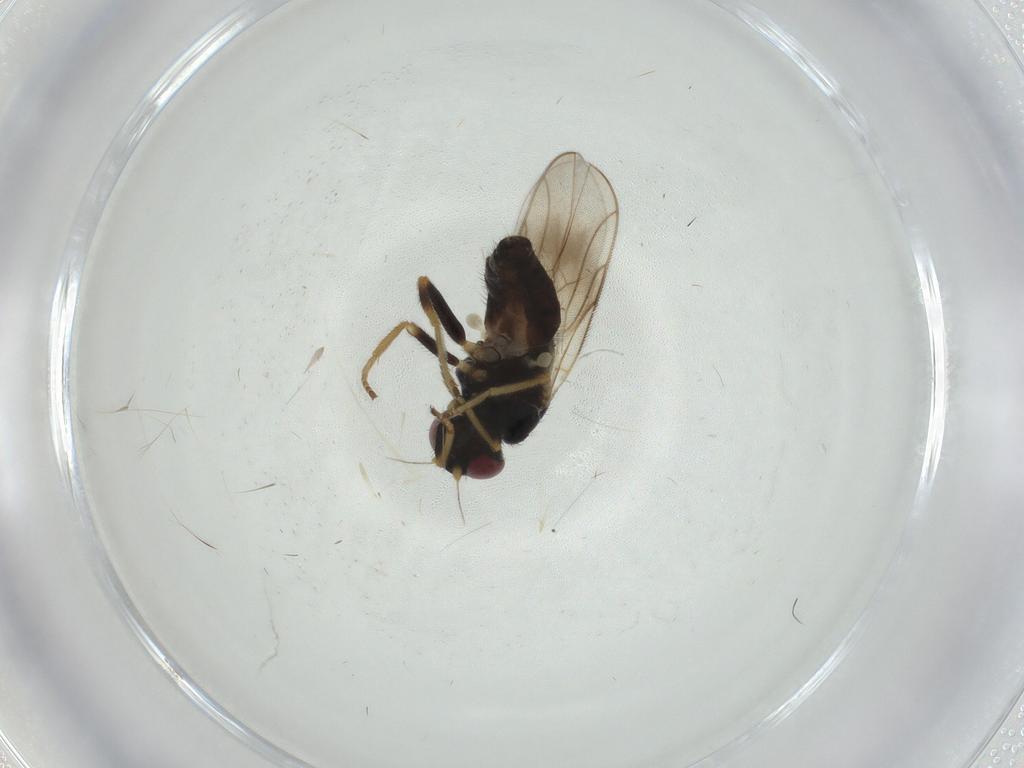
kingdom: Animalia
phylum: Arthropoda
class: Insecta
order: Diptera
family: Chloropidae
